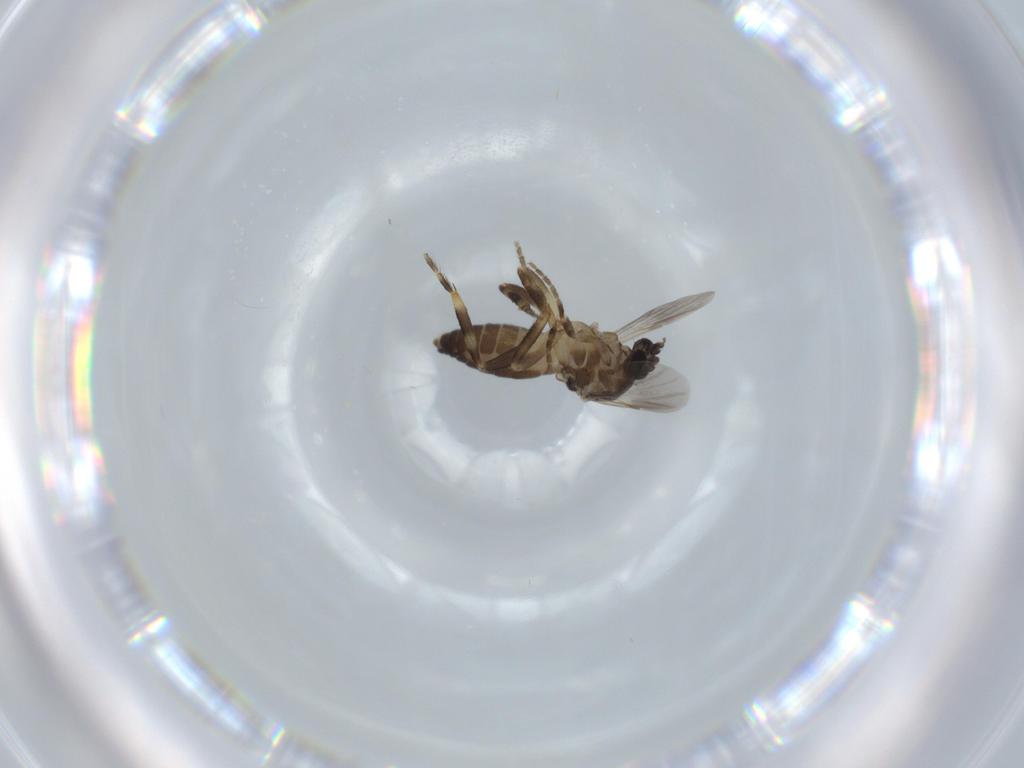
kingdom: Animalia
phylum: Arthropoda
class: Insecta
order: Diptera
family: Ceratopogonidae
